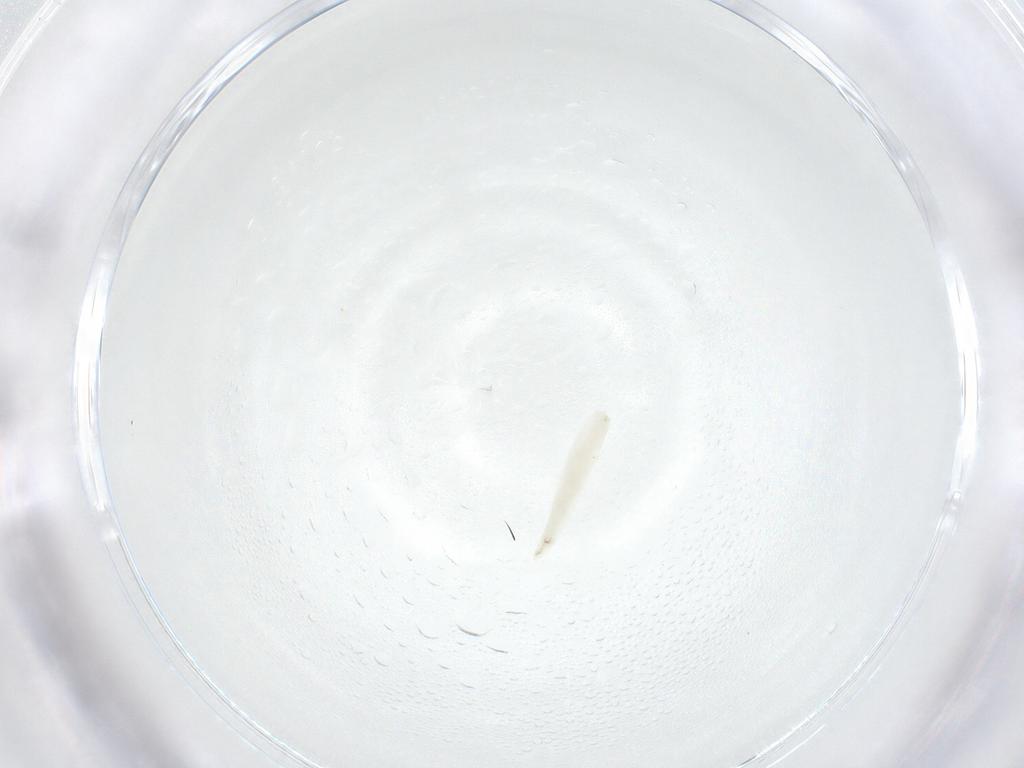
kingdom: Animalia
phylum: Arthropoda
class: Insecta
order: Diptera
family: Sarcophagidae
